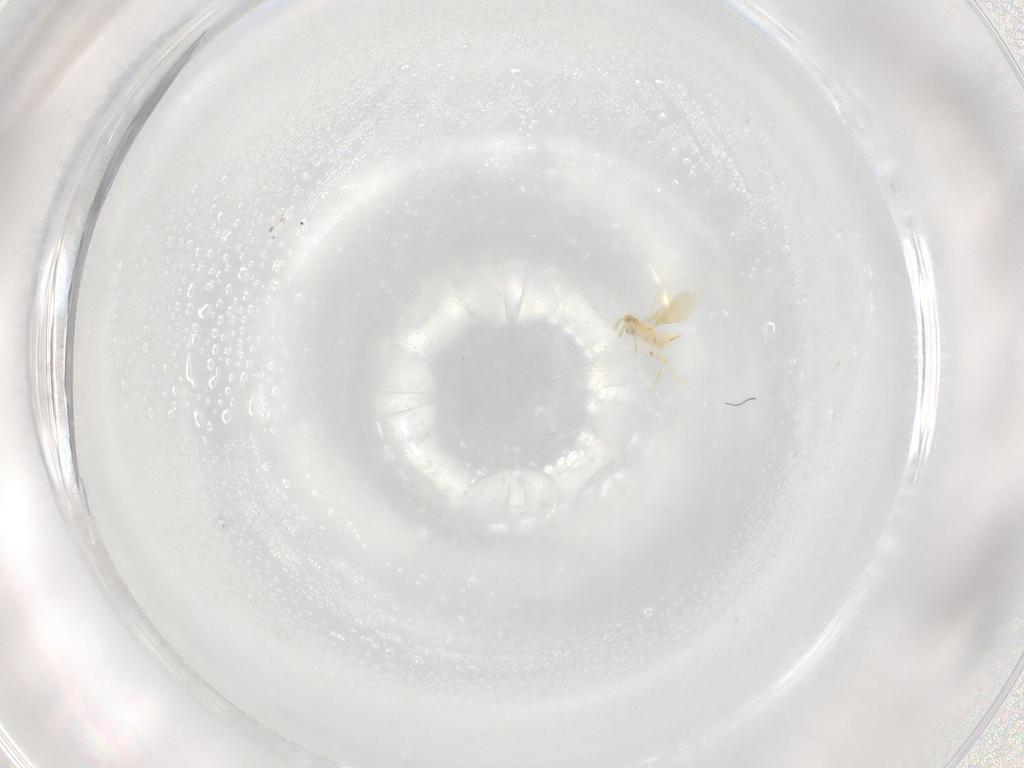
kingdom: Animalia
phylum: Arthropoda
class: Insecta
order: Hymenoptera
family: Aphelinidae
